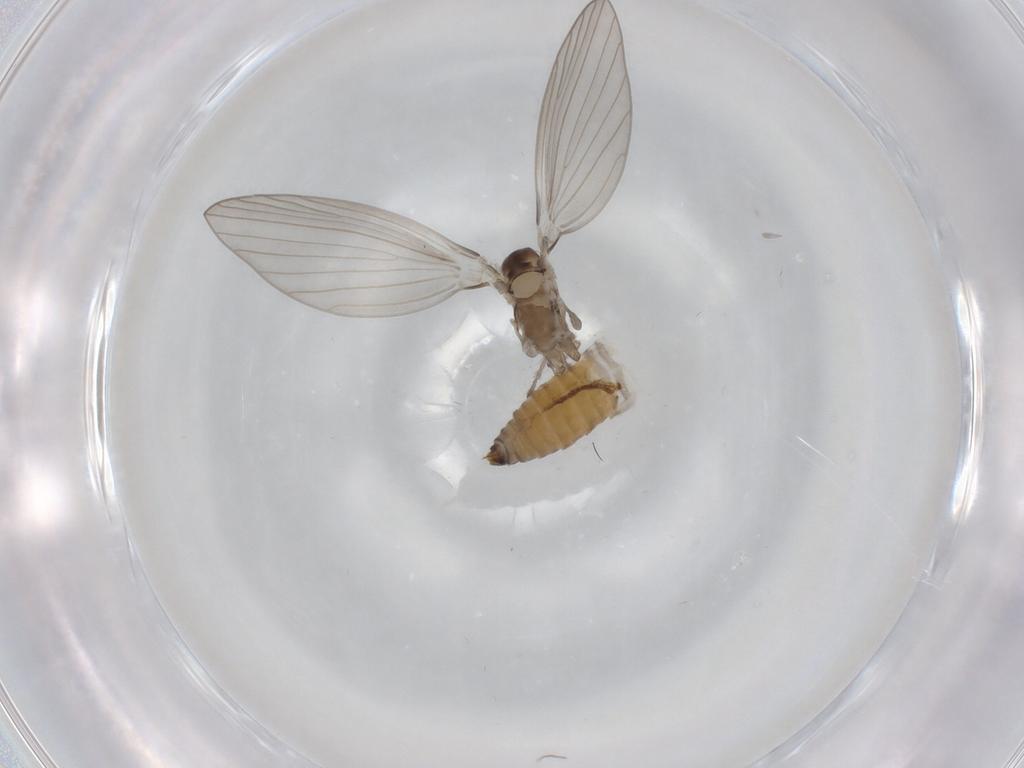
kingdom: Animalia
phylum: Arthropoda
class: Insecta
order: Diptera
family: Psychodidae
